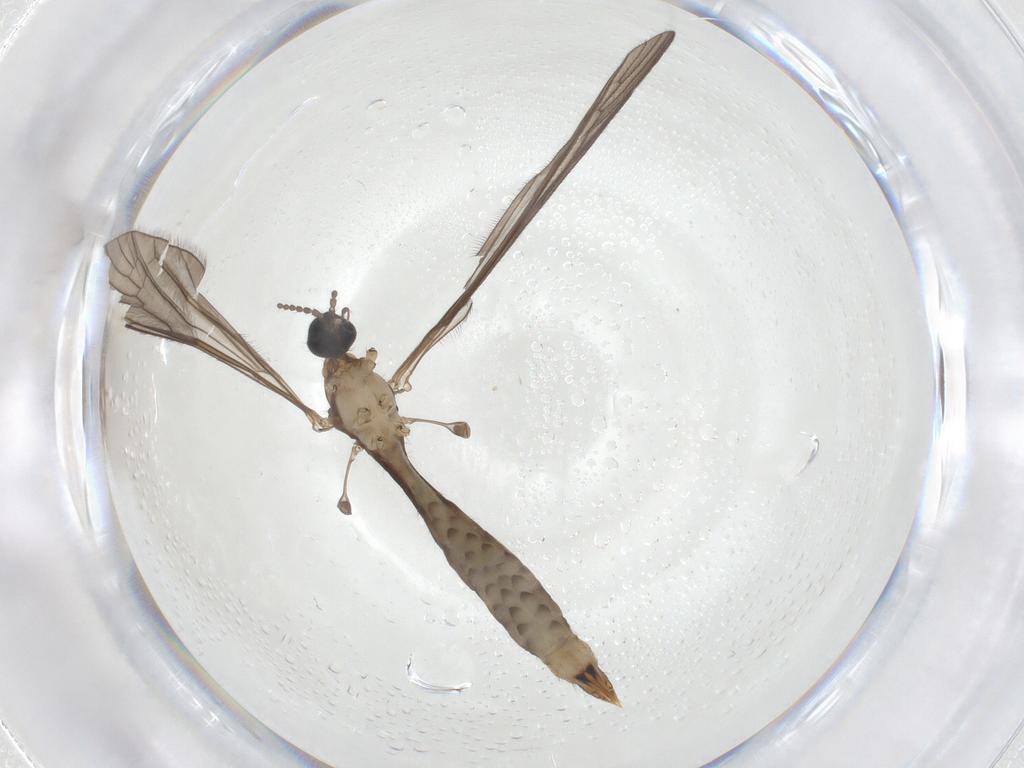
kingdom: Animalia
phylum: Arthropoda
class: Insecta
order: Diptera
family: Limoniidae
